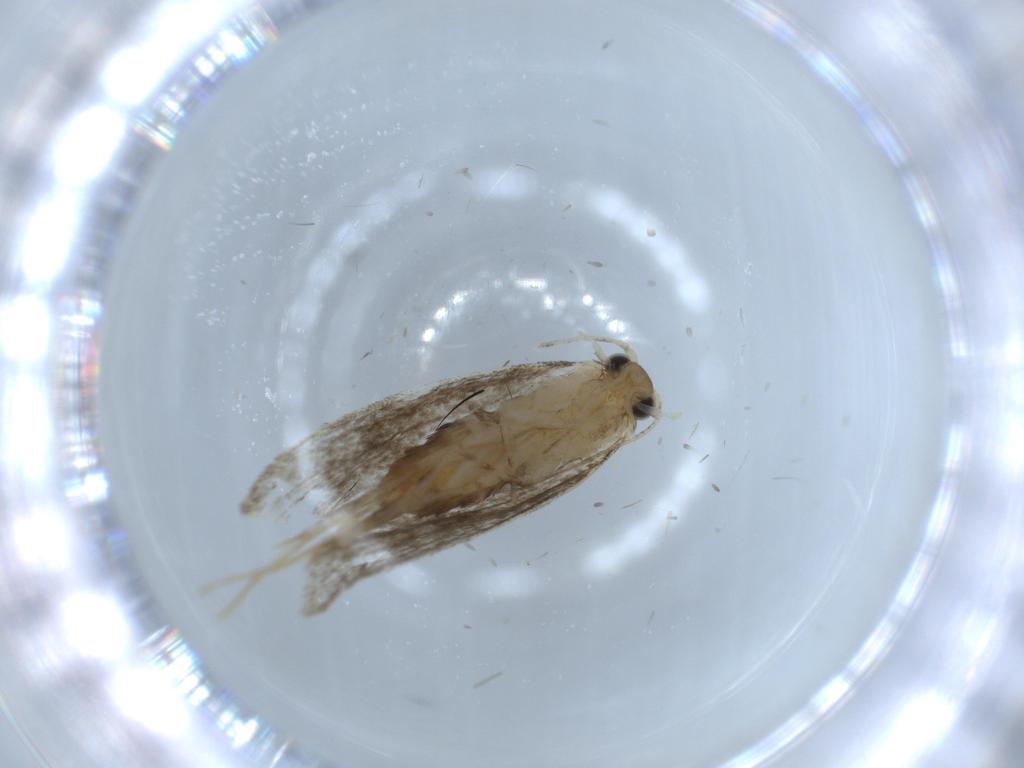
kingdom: Animalia
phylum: Arthropoda
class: Insecta
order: Lepidoptera
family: Tineidae
